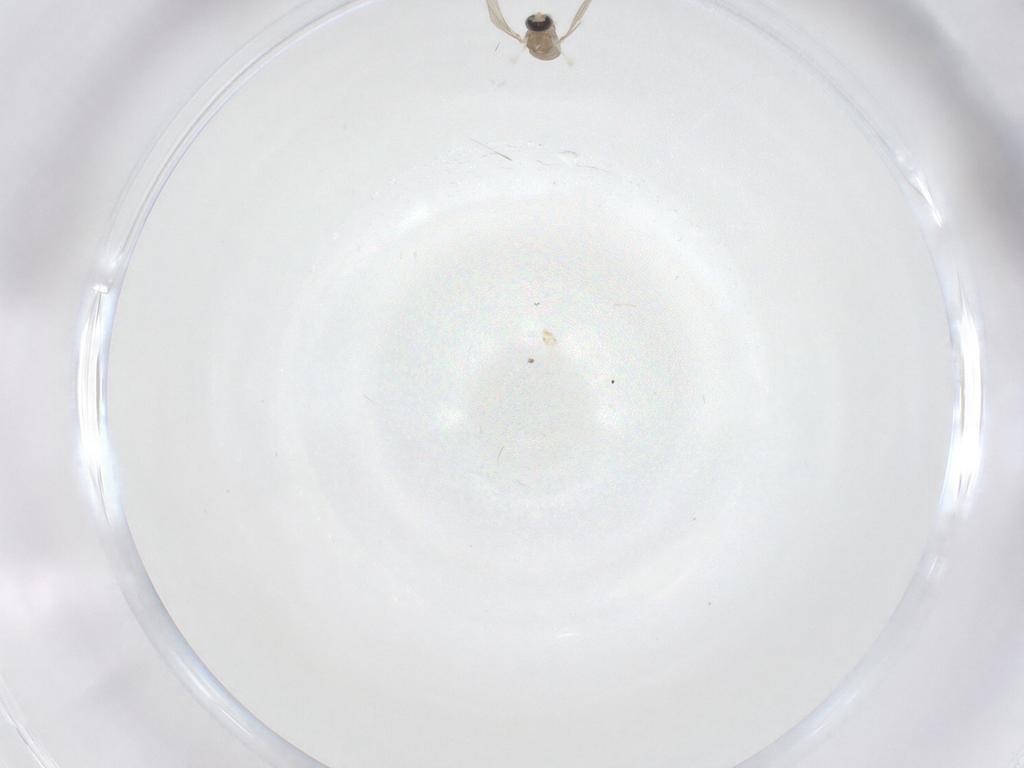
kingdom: Animalia
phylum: Arthropoda
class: Insecta
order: Diptera
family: Cecidomyiidae
